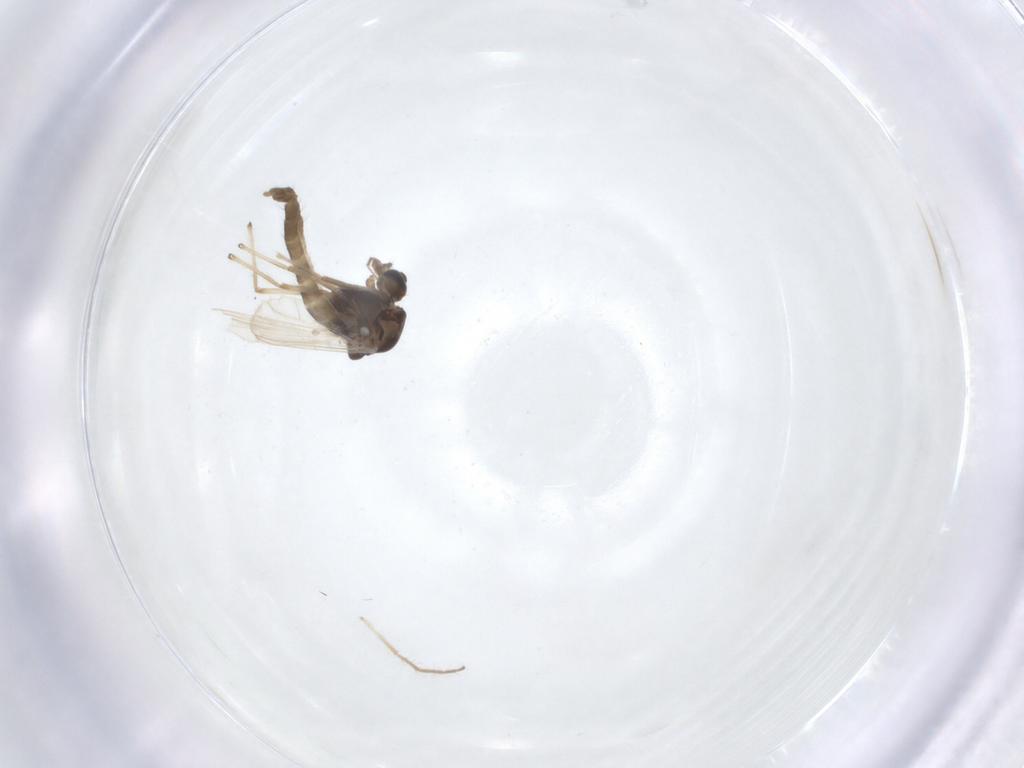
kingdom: Animalia
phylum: Arthropoda
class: Insecta
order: Diptera
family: Chironomidae
